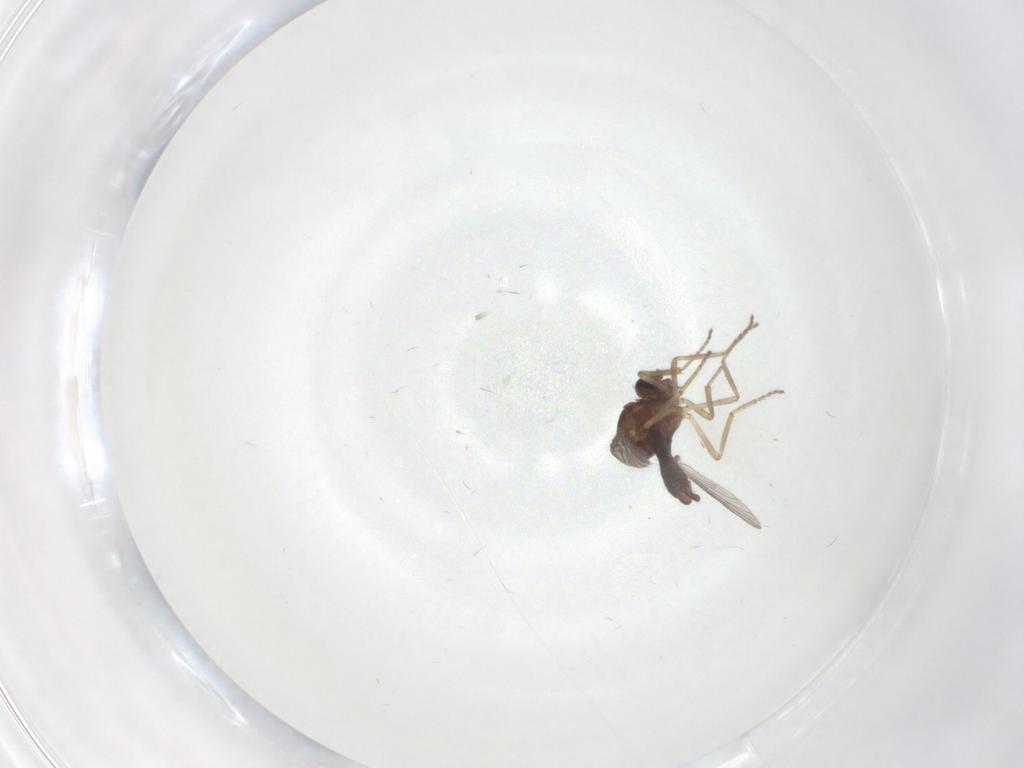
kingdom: Animalia
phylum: Arthropoda
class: Insecta
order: Diptera
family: Ceratopogonidae
